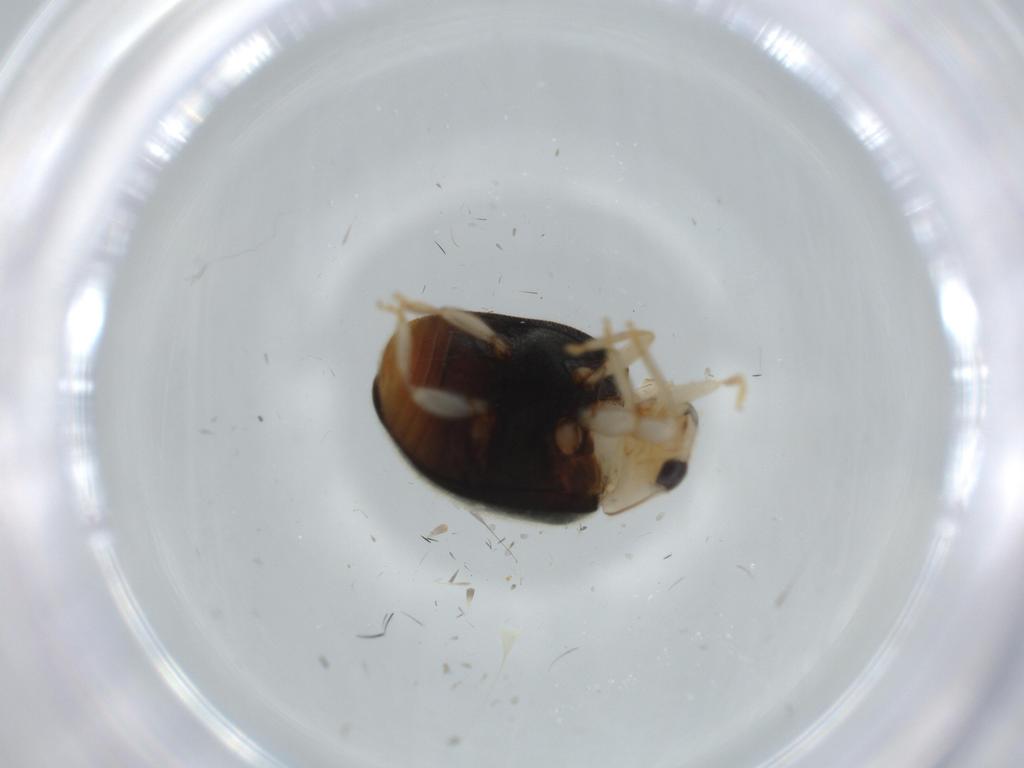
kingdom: Animalia
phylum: Arthropoda
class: Insecta
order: Coleoptera
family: Coccinellidae
